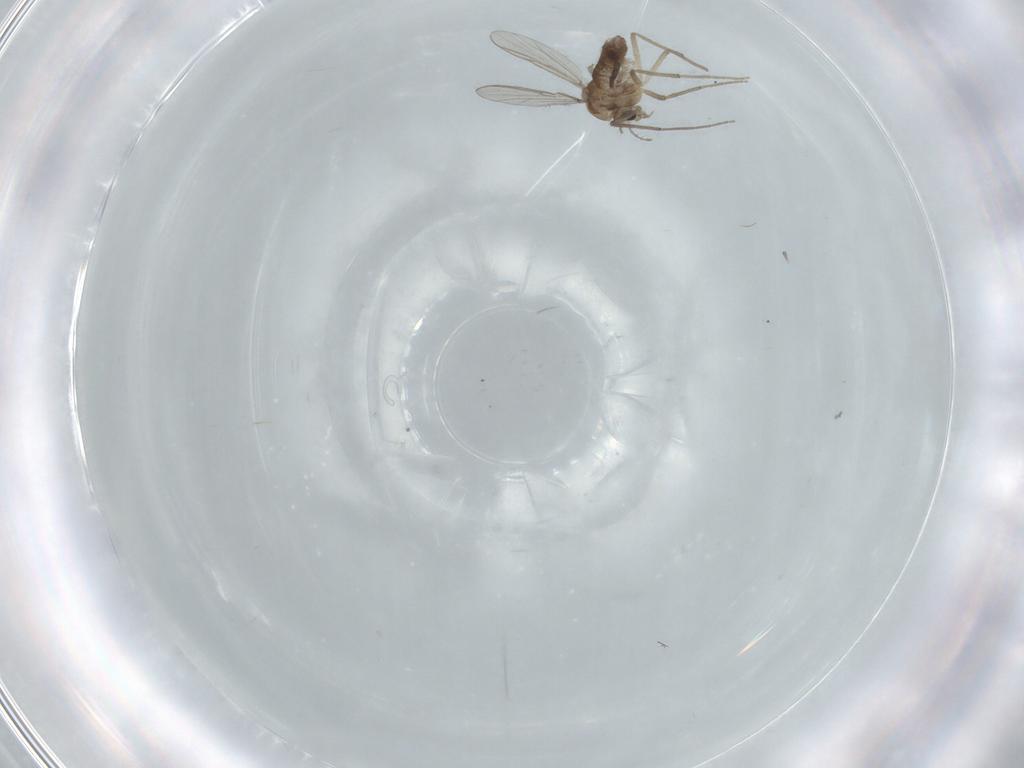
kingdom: Animalia
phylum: Arthropoda
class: Insecta
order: Diptera
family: Chironomidae
